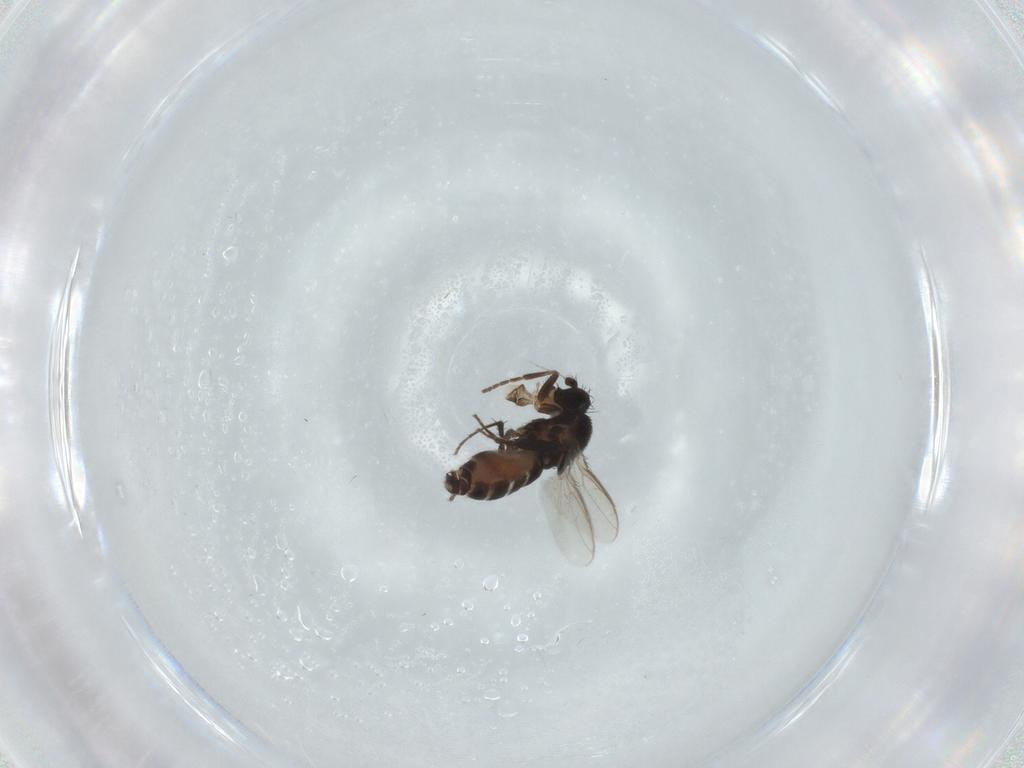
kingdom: Animalia
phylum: Arthropoda
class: Insecta
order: Diptera
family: Sphaeroceridae
